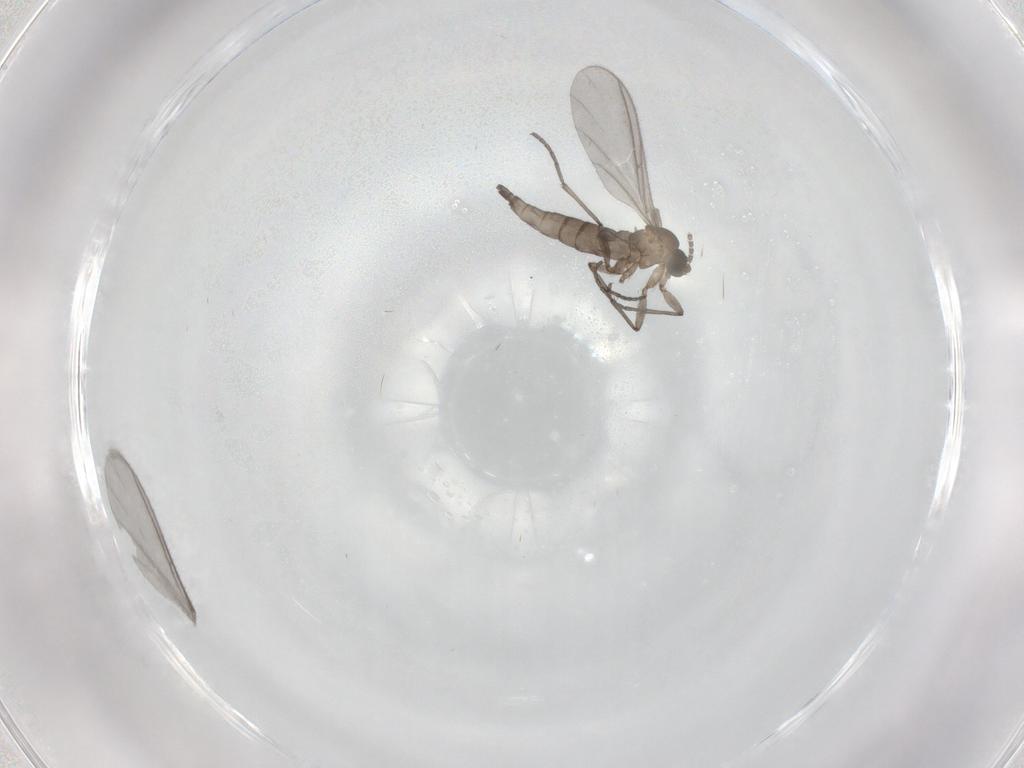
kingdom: Animalia
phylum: Arthropoda
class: Insecta
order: Diptera
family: Sciaridae
